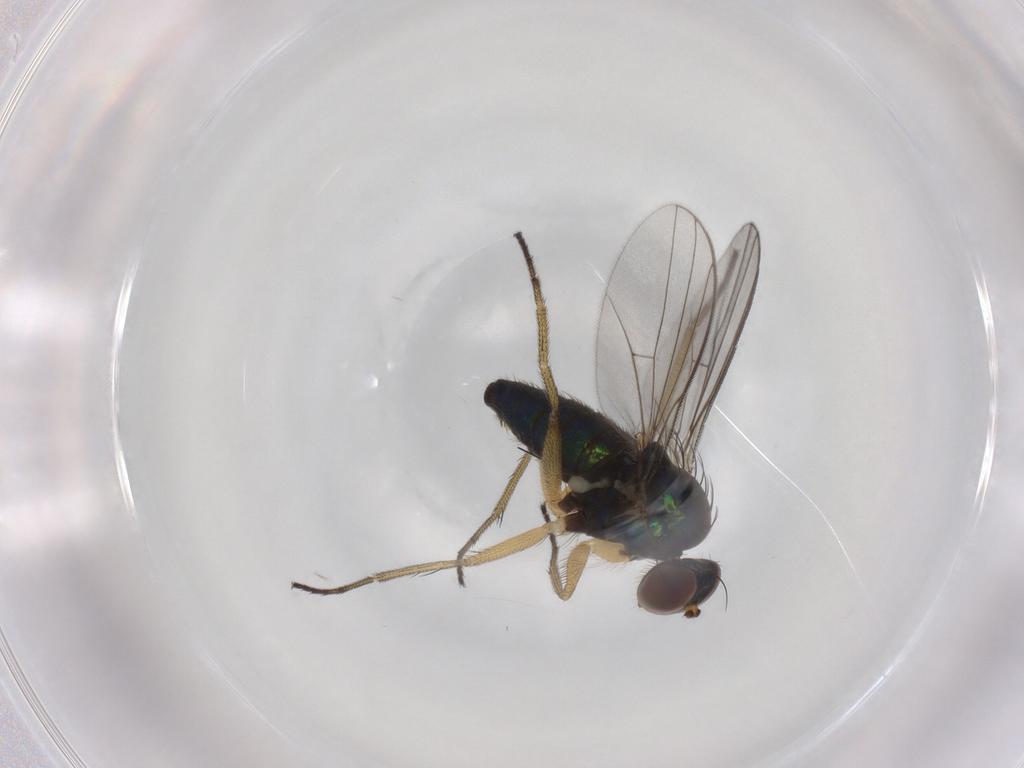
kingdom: Animalia
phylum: Arthropoda
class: Insecta
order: Diptera
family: Dolichopodidae
